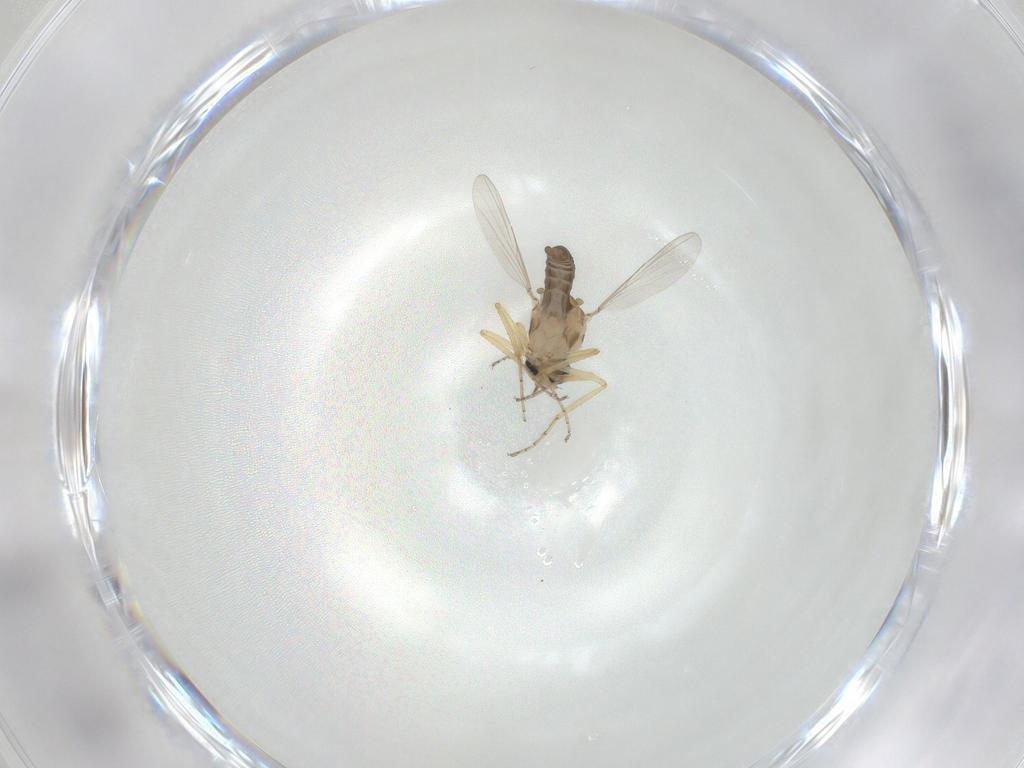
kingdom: Animalia
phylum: Arthropoda
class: Insecta
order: Diptera
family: Ceratopogonidae
